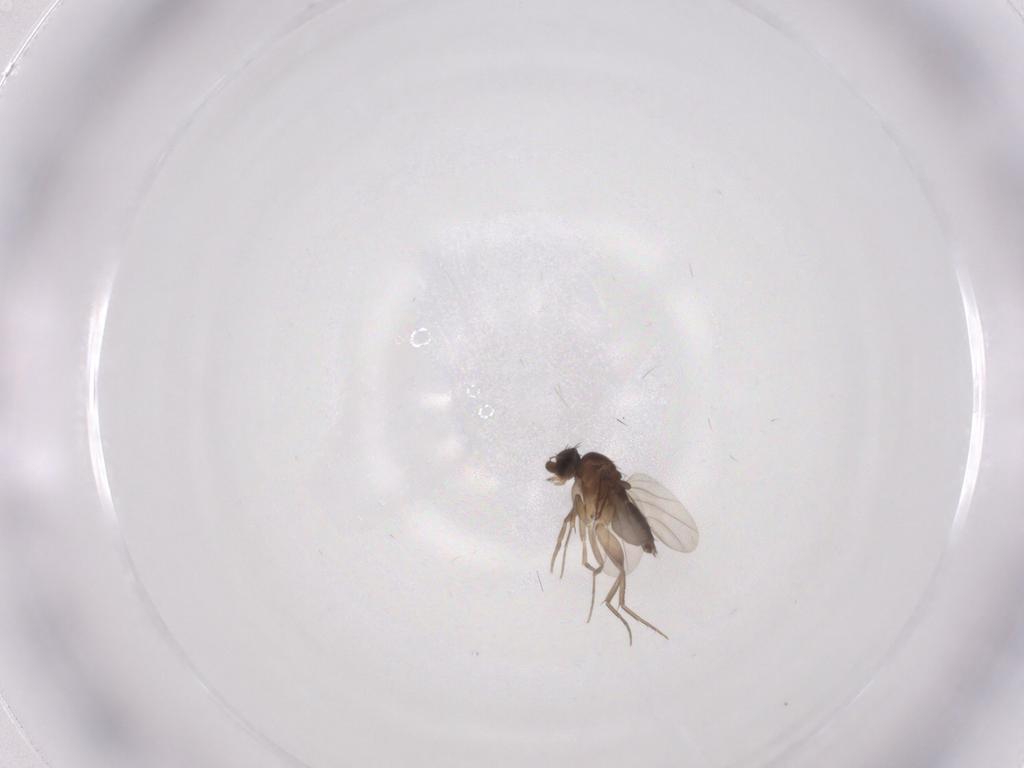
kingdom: Animalia
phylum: Arthropoda
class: Insecta
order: Diptera
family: Phoridae
